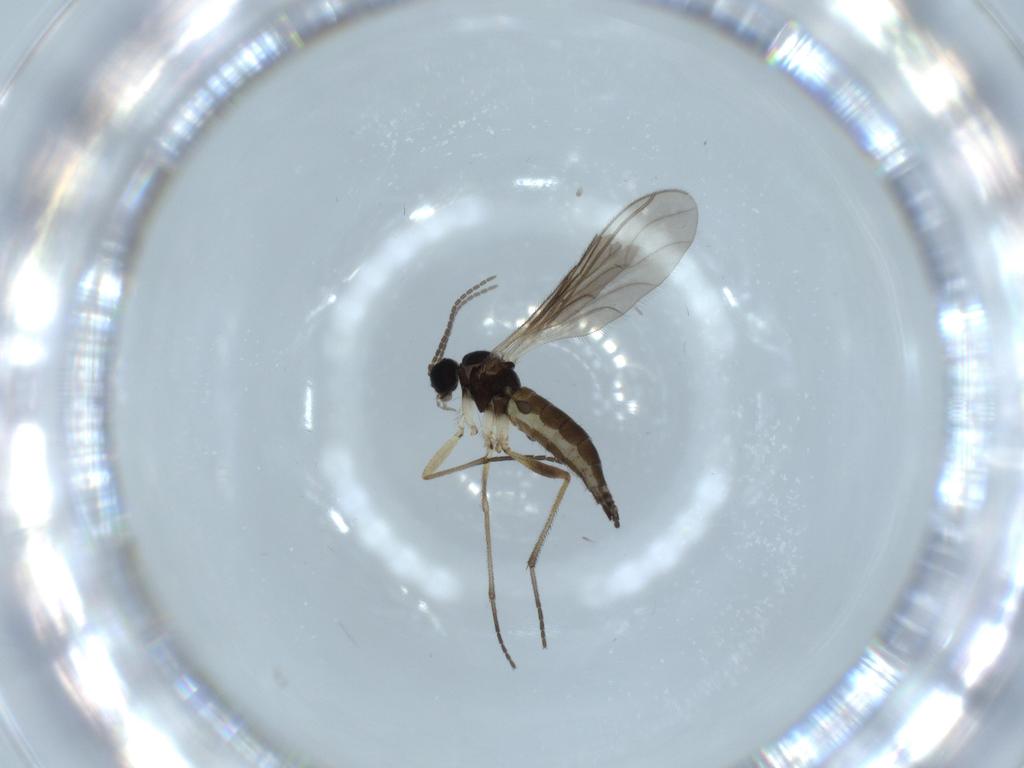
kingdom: Animalia
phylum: Arthropoda
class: Insecta
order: Diptera
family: Sciaridae
